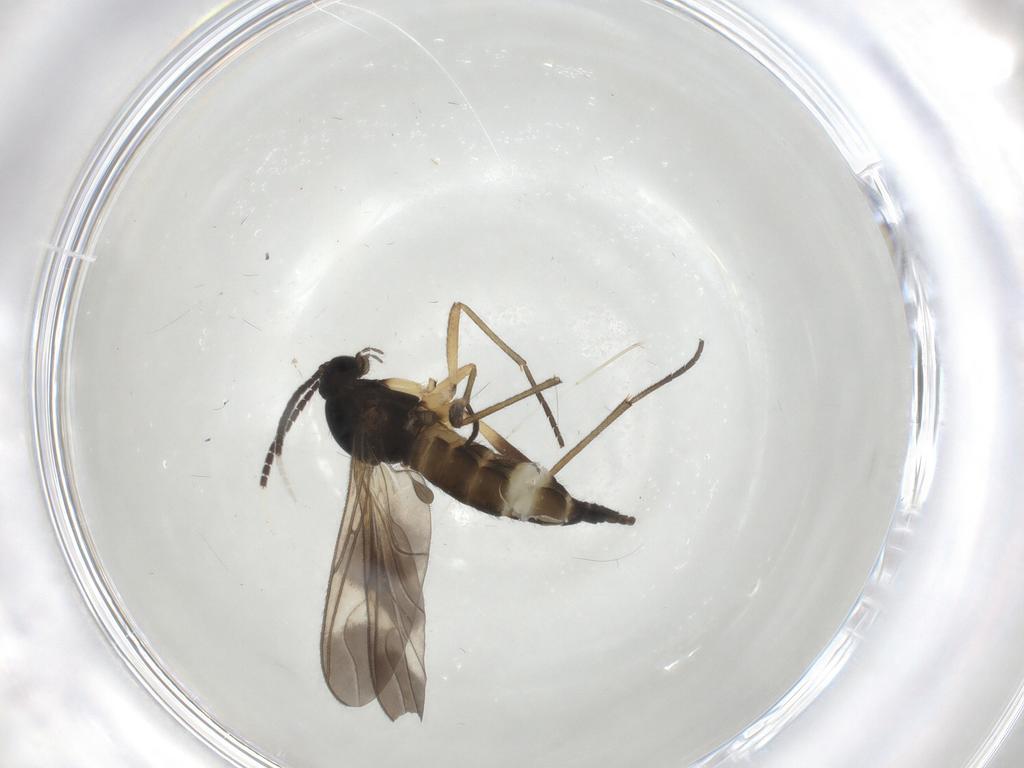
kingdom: Animalia
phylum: Arthropoda
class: Insecta
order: Diptera
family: Sciaridae
